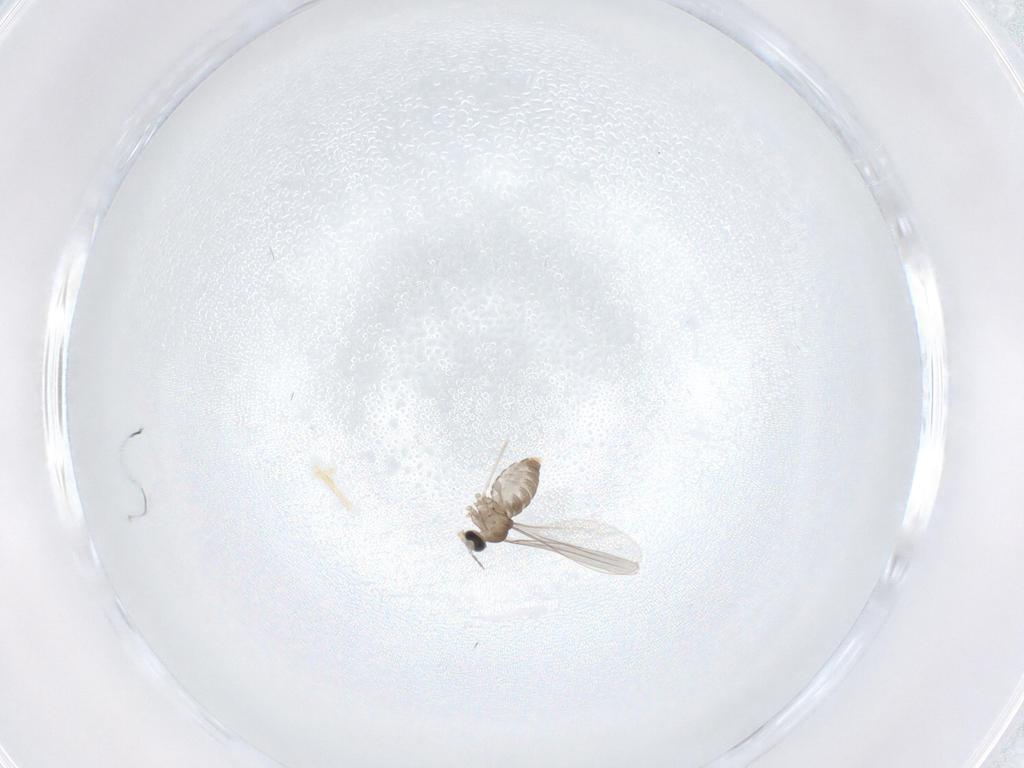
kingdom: Animalia
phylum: Arthropoda
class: Insecta
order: Diptera
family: Cecidomyiidae
